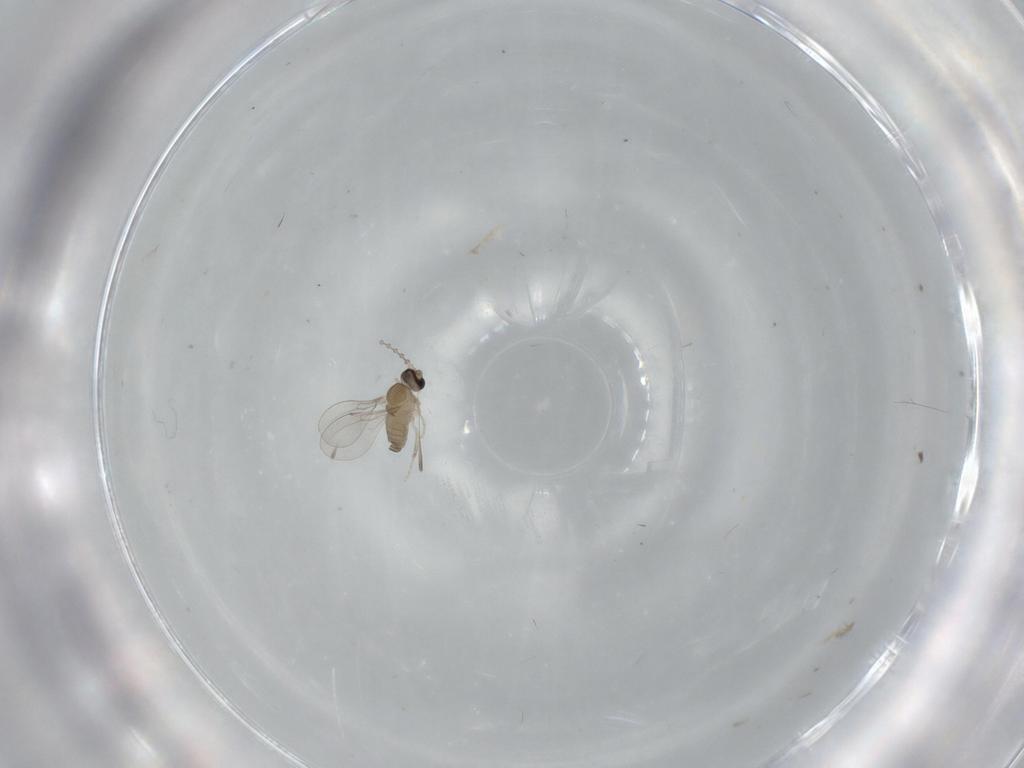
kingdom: Animalia
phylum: Arthropoda
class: Insecta
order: Diptera
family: Cecidomyiidae
